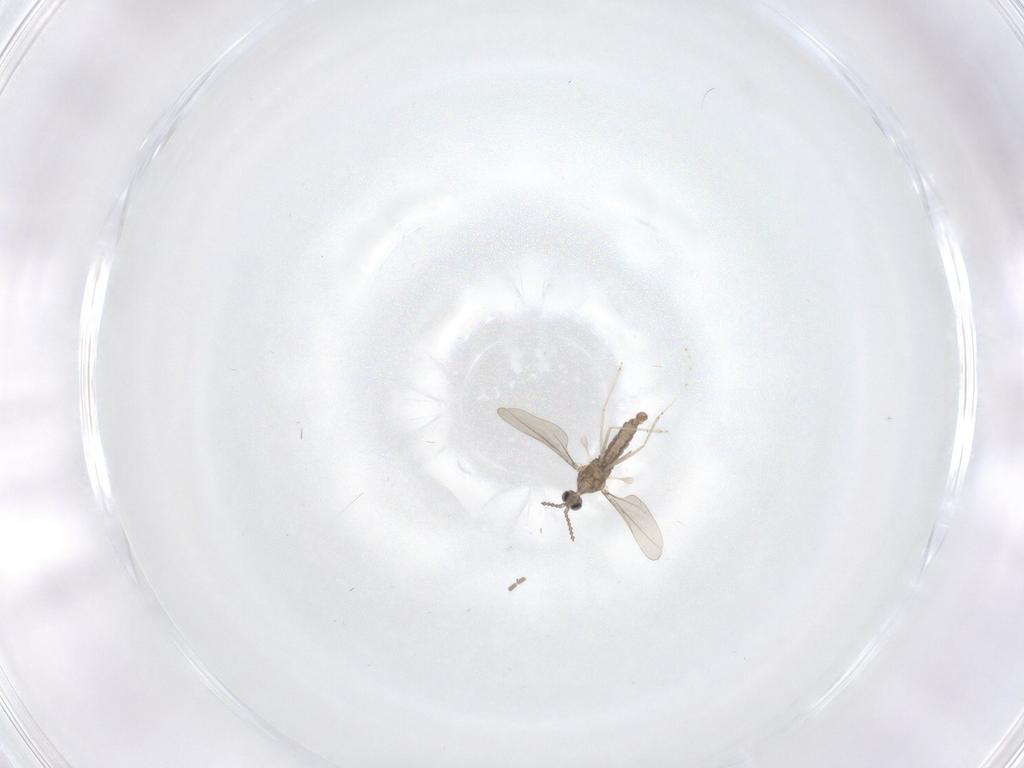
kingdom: Animalia
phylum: Arthropoda
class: Insecta
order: Diptera
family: Cecidomyiidae
